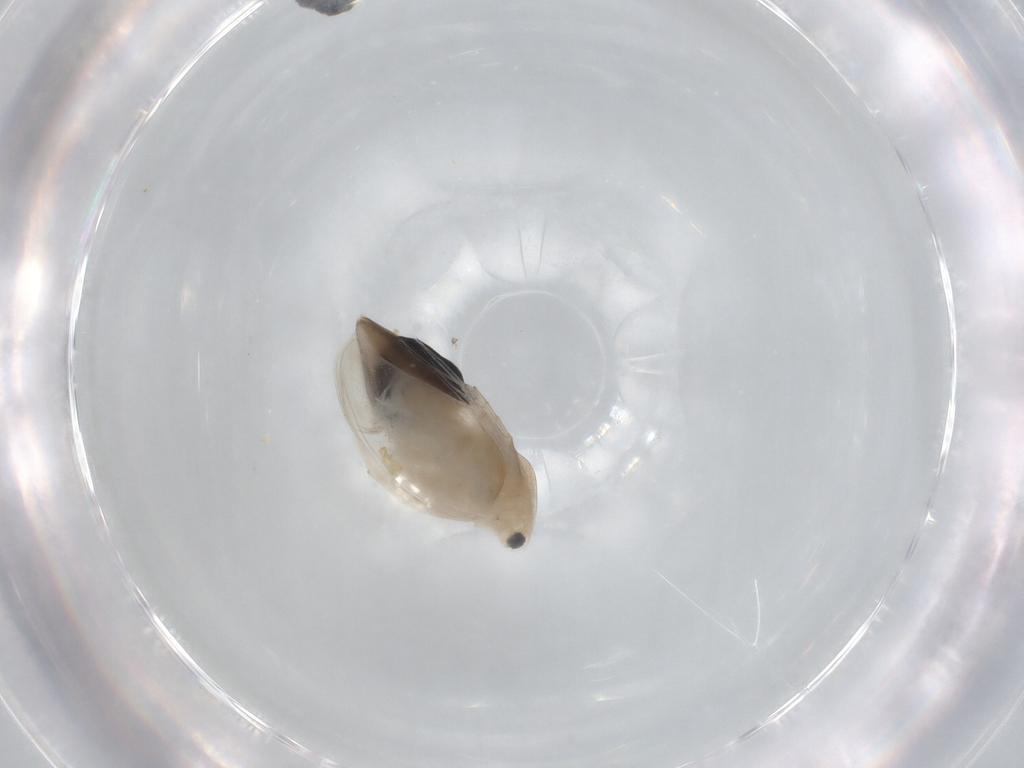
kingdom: Animalia
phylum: Arthropoda
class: Branchiopoda
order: Diplostraca
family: Daphniidae
